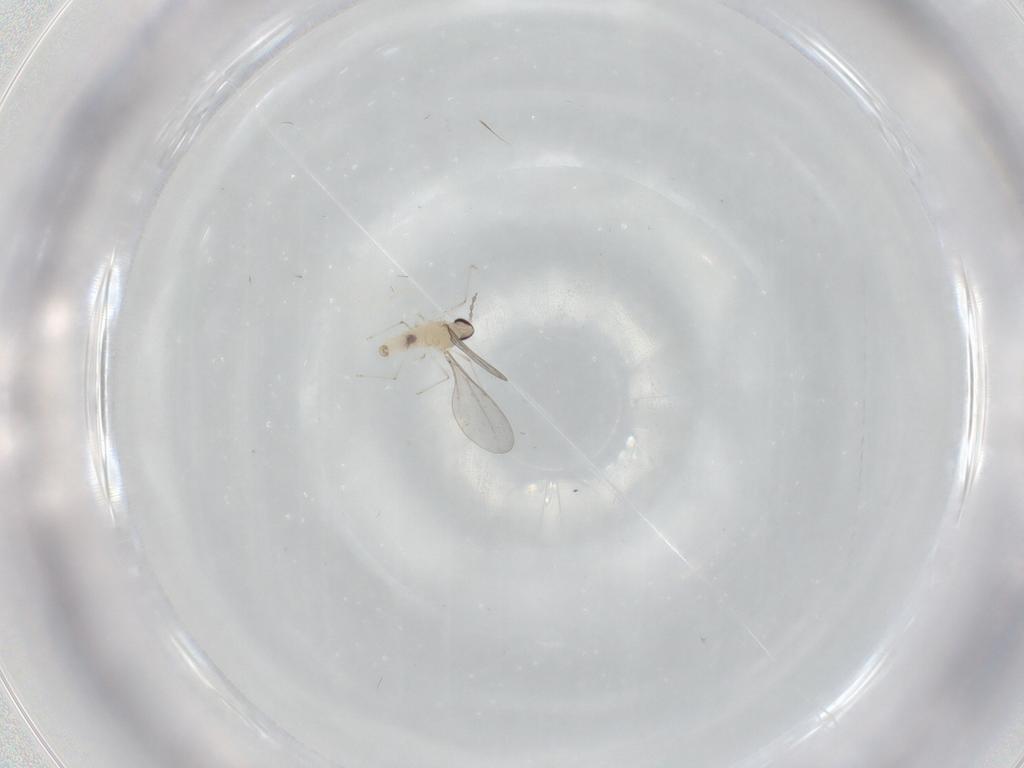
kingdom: Animalia
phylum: Arthropoda
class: Insecta
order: Diptera
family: Cecidomyiidae
